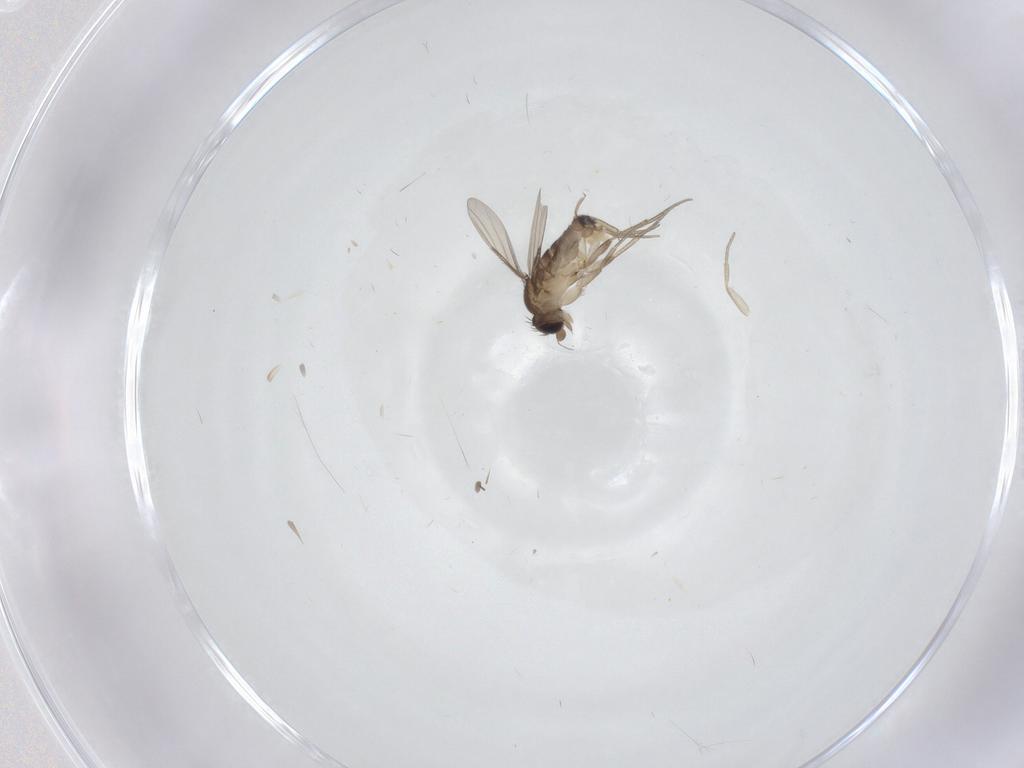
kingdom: Animalia
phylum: Arthropoda
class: Insecta
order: Diptera
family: Phoridae
